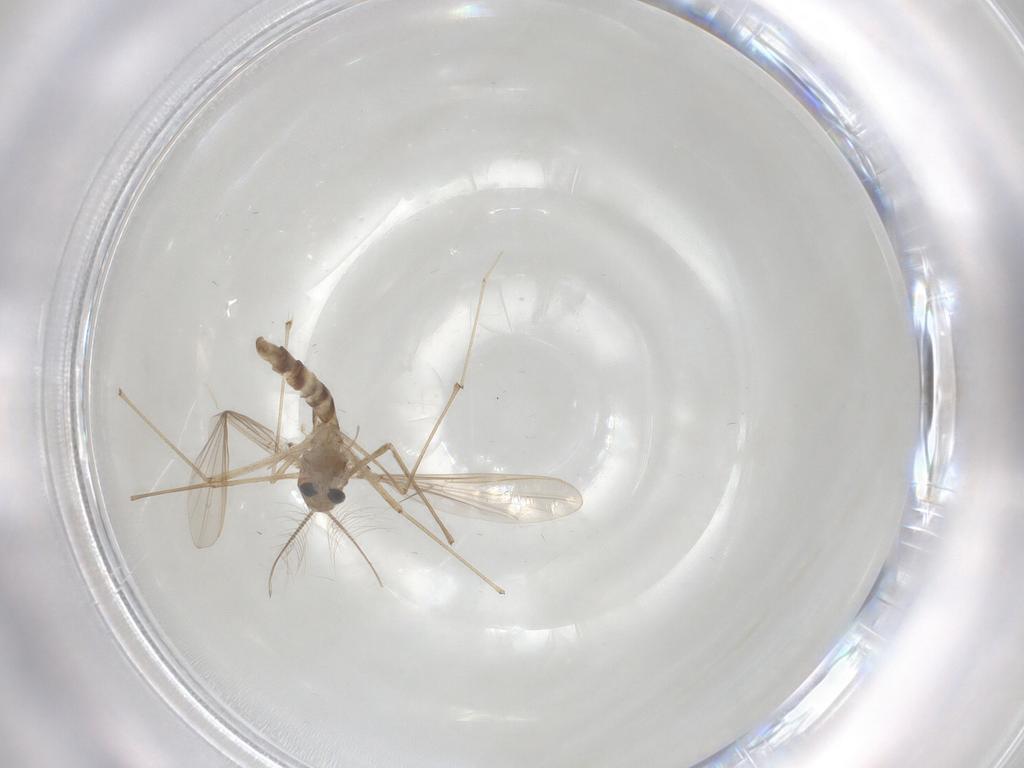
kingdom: Animalia
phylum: Arthropoda
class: Insecta
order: Diptera
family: Chironomidae
